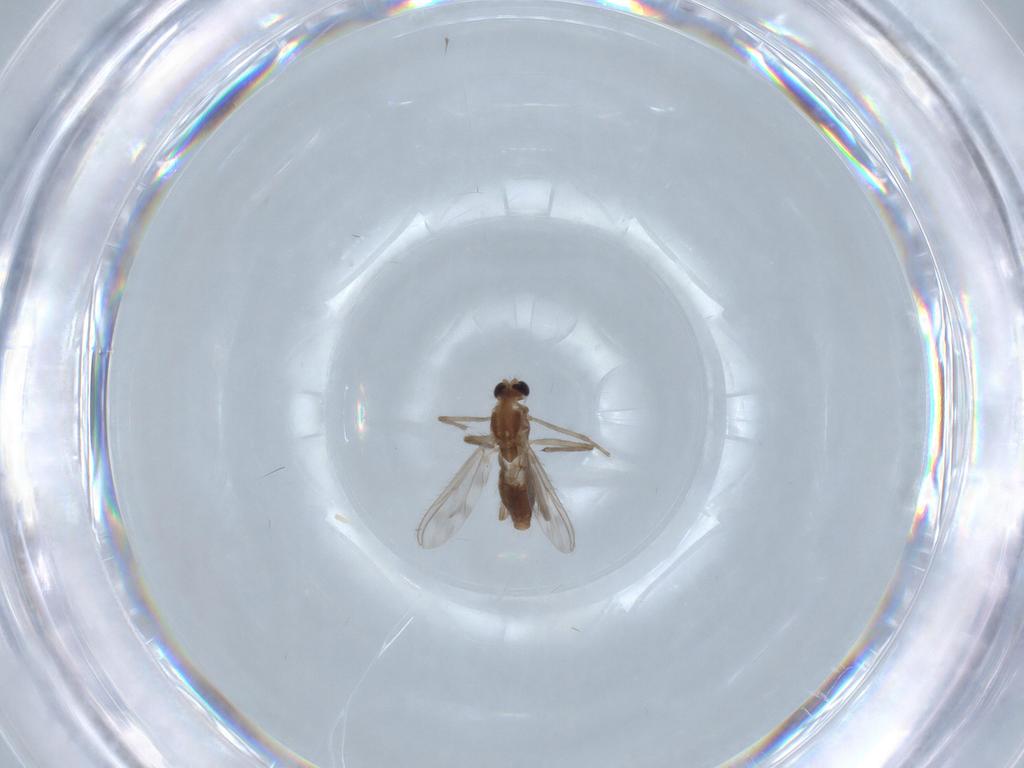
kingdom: Animalia
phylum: Arthropoda
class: Insecta
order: Diptera
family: Chironomidae
